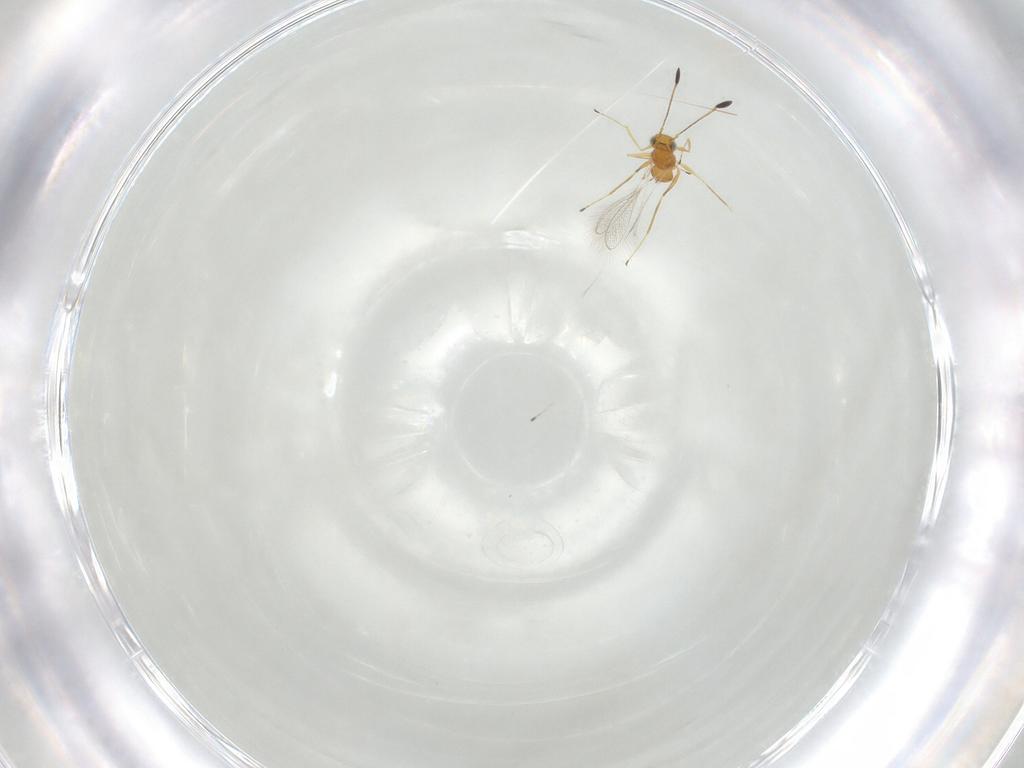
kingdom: Animalia
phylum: Arthropoda
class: Insecta
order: Hymenoptera
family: Mymaridae
